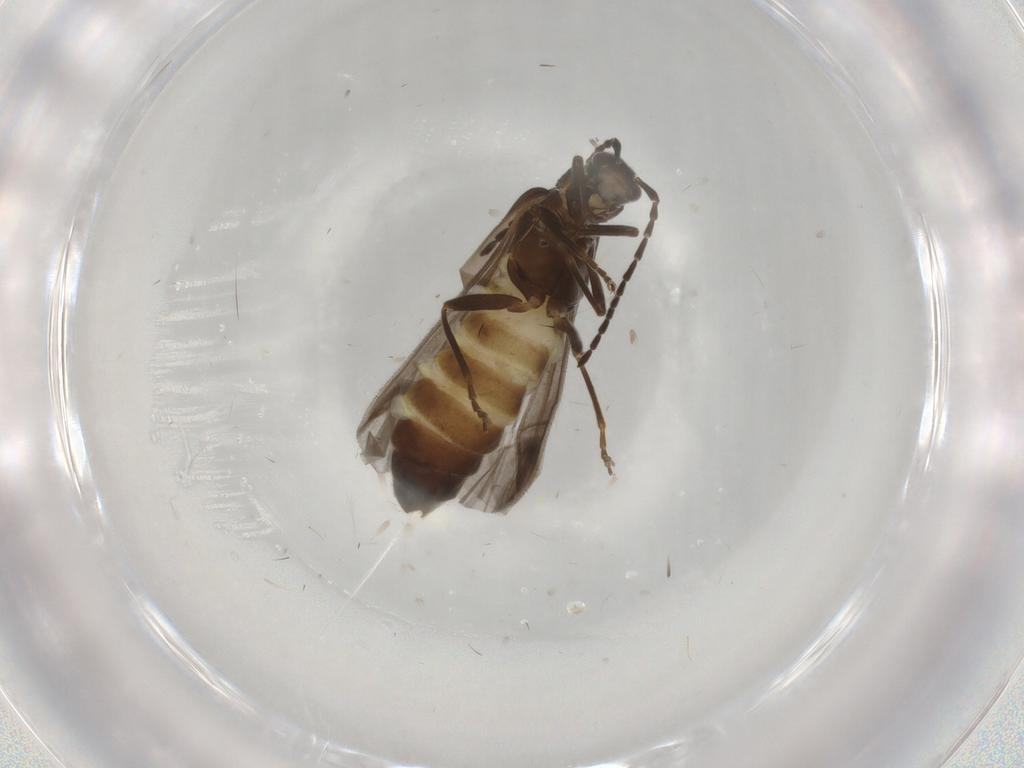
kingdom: Animalia
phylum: Arthropoda
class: Insecta
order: Coleoptera
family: Cantharidae
